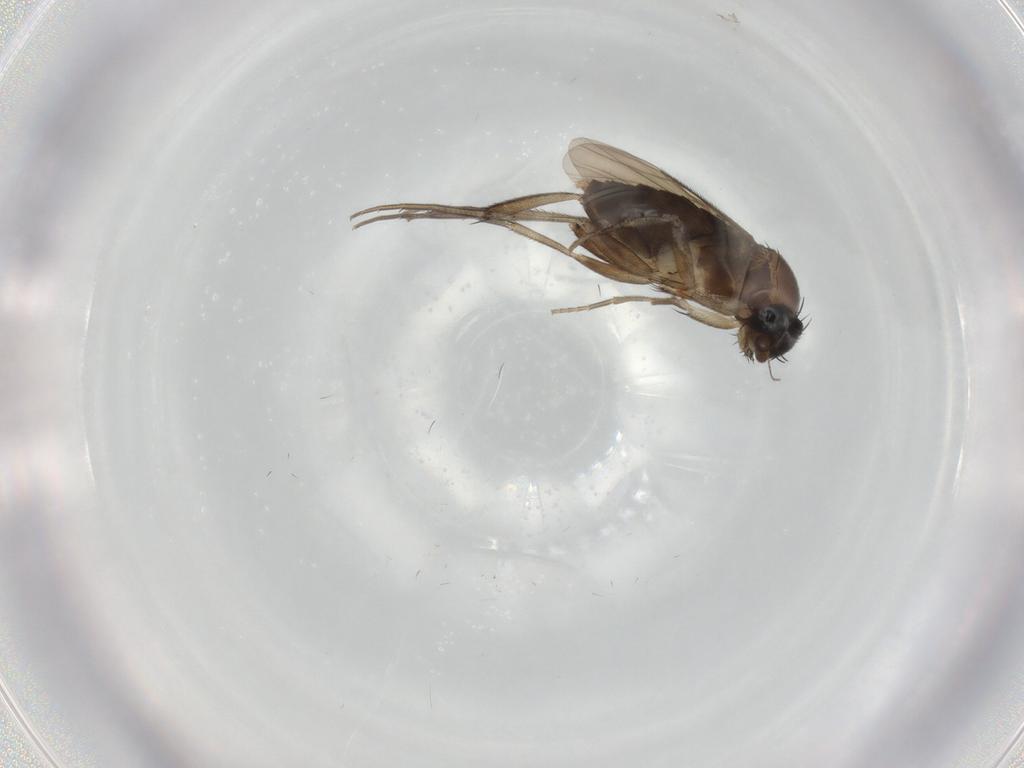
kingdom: Animalia
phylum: Arthropoda
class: Insecta
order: Diptera
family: Phoridae
